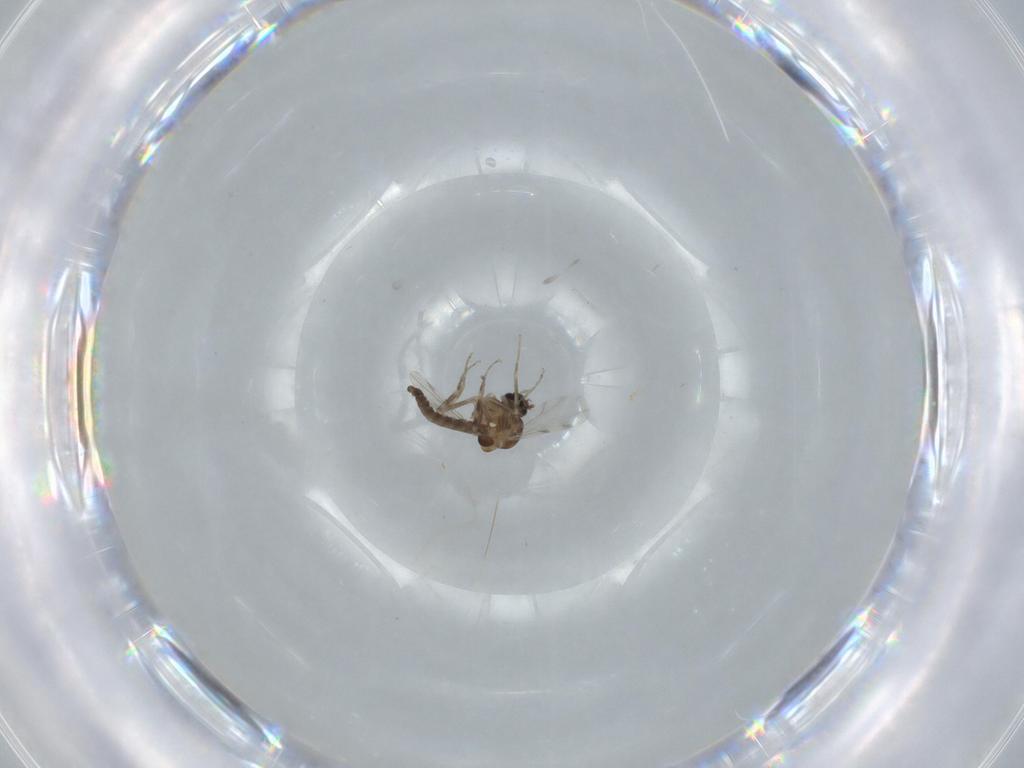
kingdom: Animalia
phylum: Arthropoda
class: Insecta
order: Diptera
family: Ceratopogonidae
